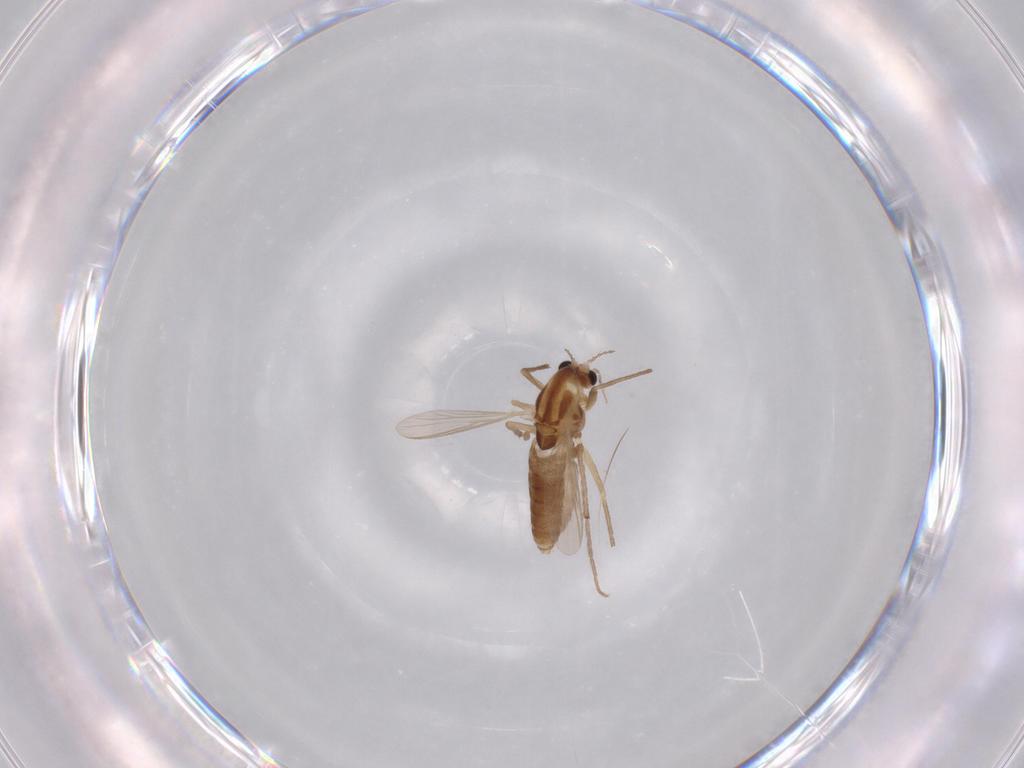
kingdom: Animalia
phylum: Arthropoda
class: Insecta
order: Diptera
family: Chironomidae
